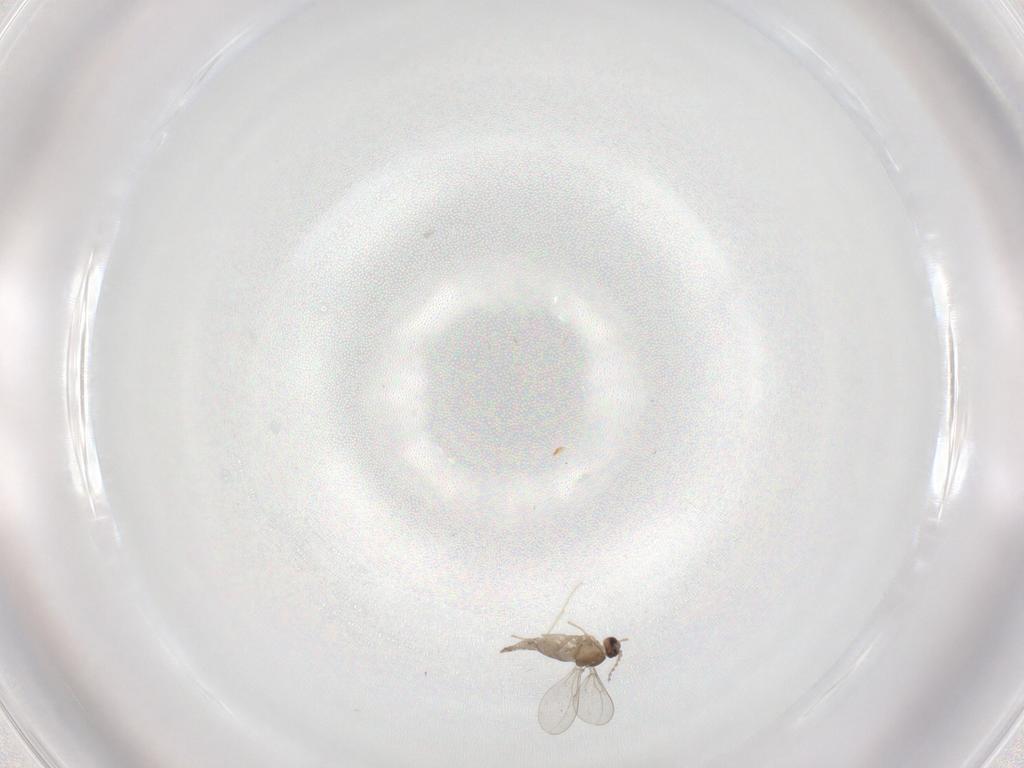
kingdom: Animalia
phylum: Arthropoda
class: Insecta
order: Diptera
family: Cecidomyiidae
